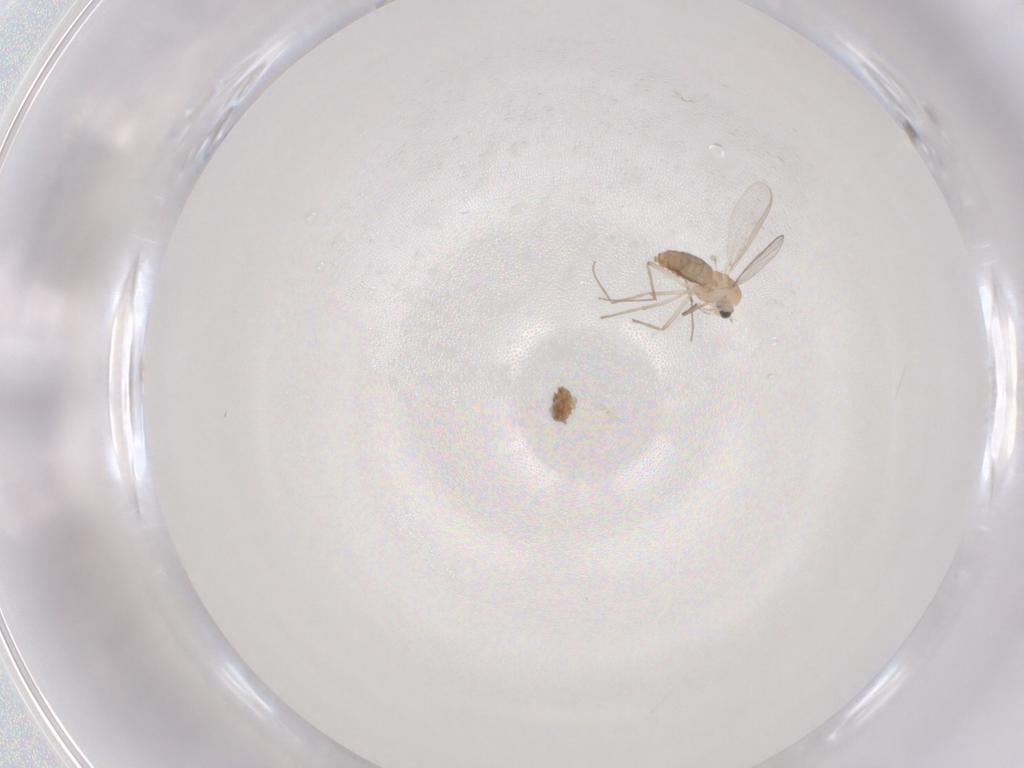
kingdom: Animalia
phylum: Arthropoda
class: Insecta
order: Diptera
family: Chironomidae
